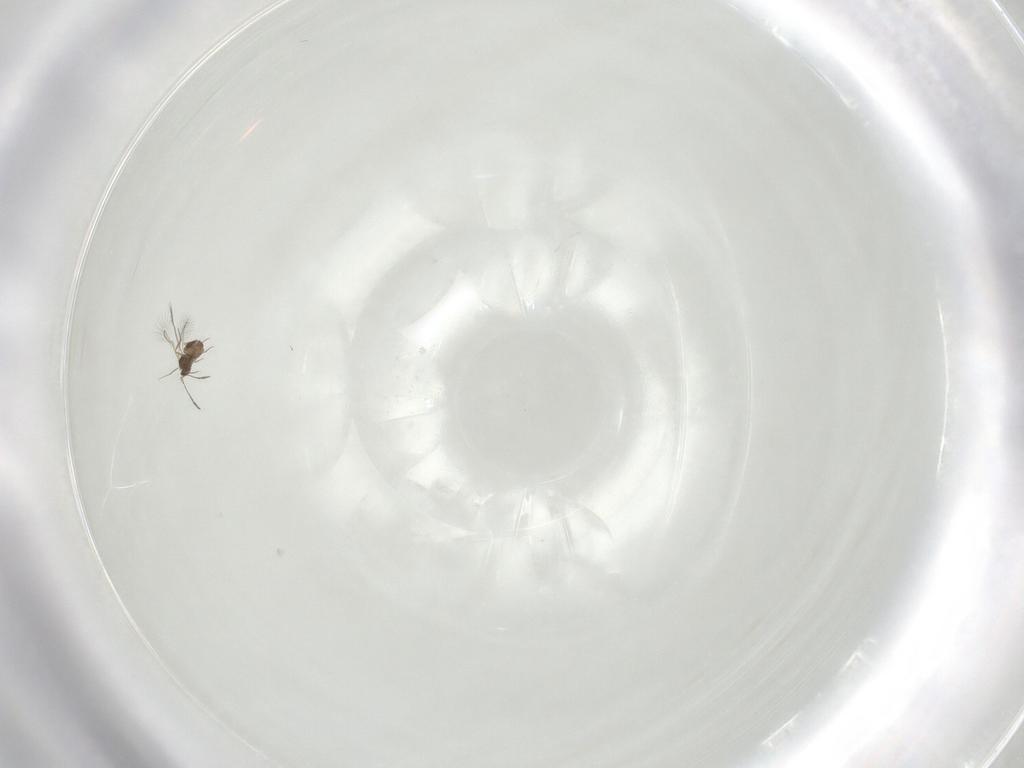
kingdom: Animalia
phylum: Arthropoda
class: Insecta
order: Hymenoptera
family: Mymaridae
